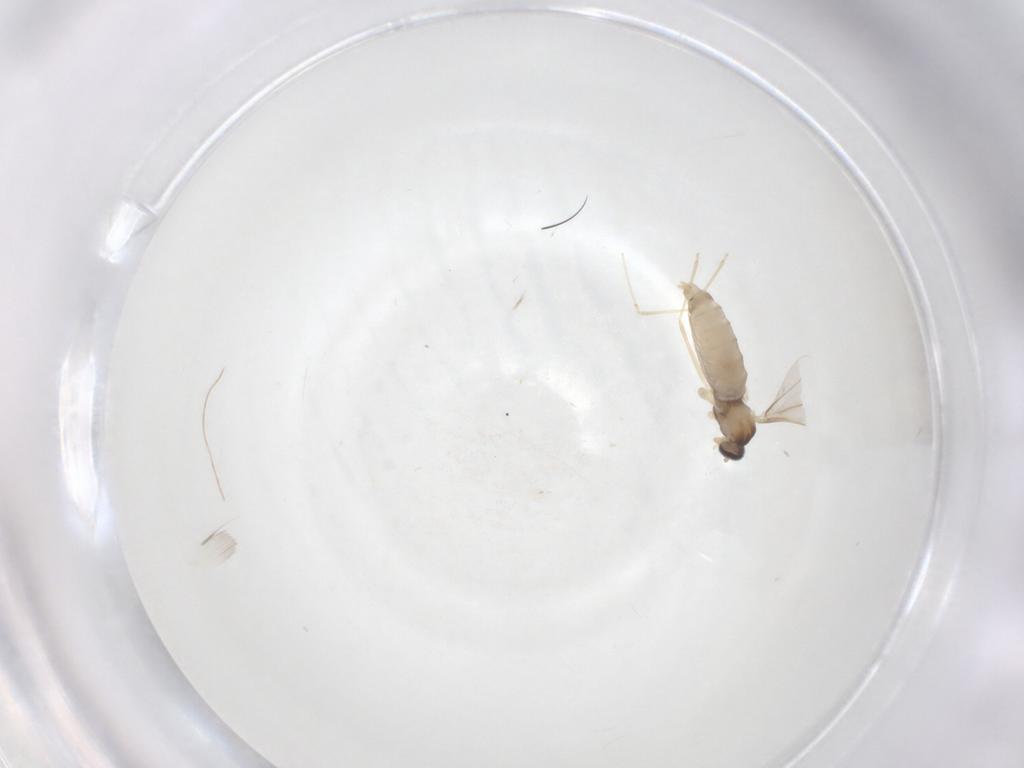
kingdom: Animalia
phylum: Arthropoda
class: Insecta
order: Diptera
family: Cecidomyiidae
